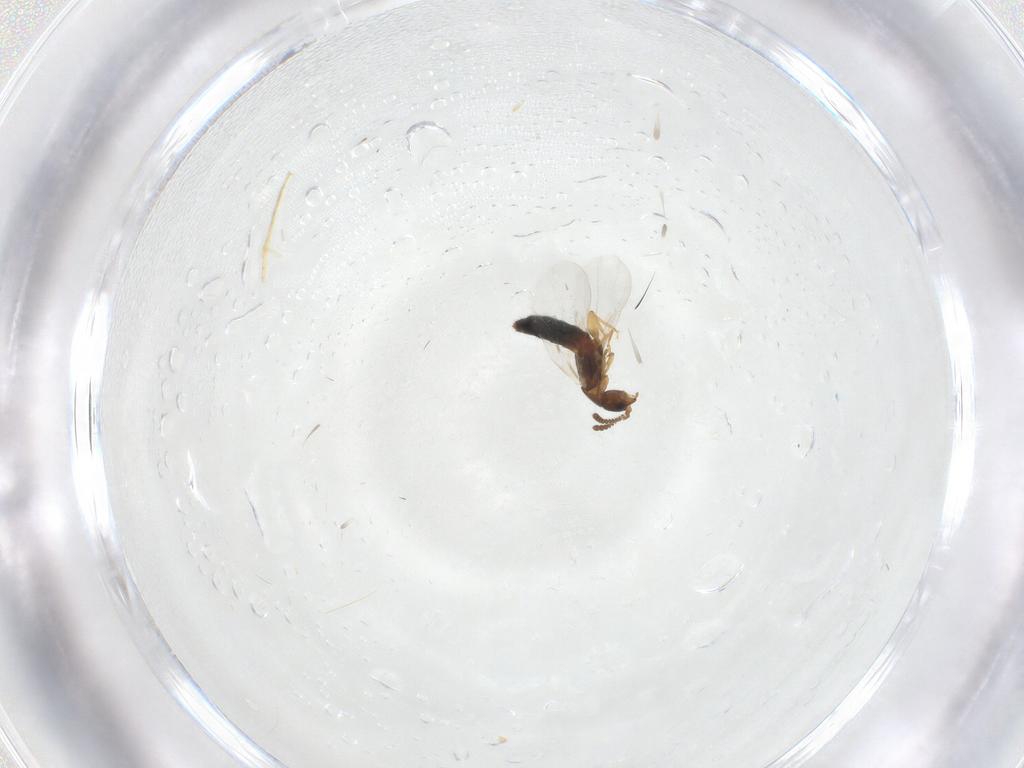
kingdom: Animalia
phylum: Arthropoda
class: Insecta
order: Coleoptera
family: Staphylinidae
